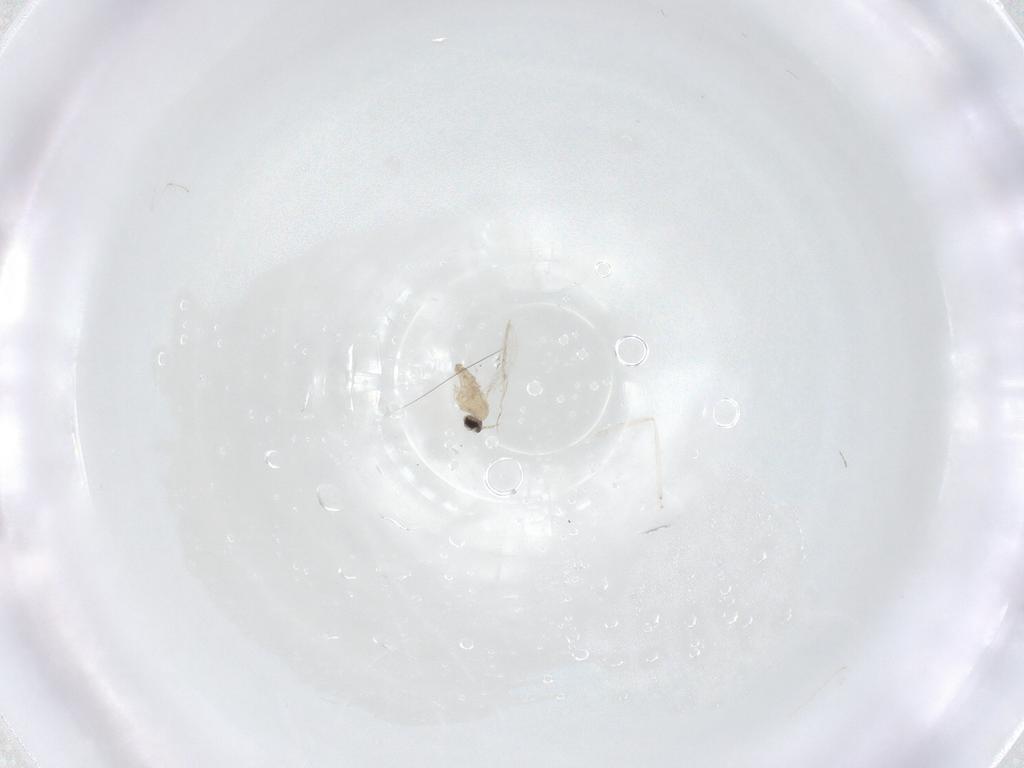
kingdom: Animalia
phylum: Arthropoda
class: Insecta
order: Diptera
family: Cecidomyiidae
